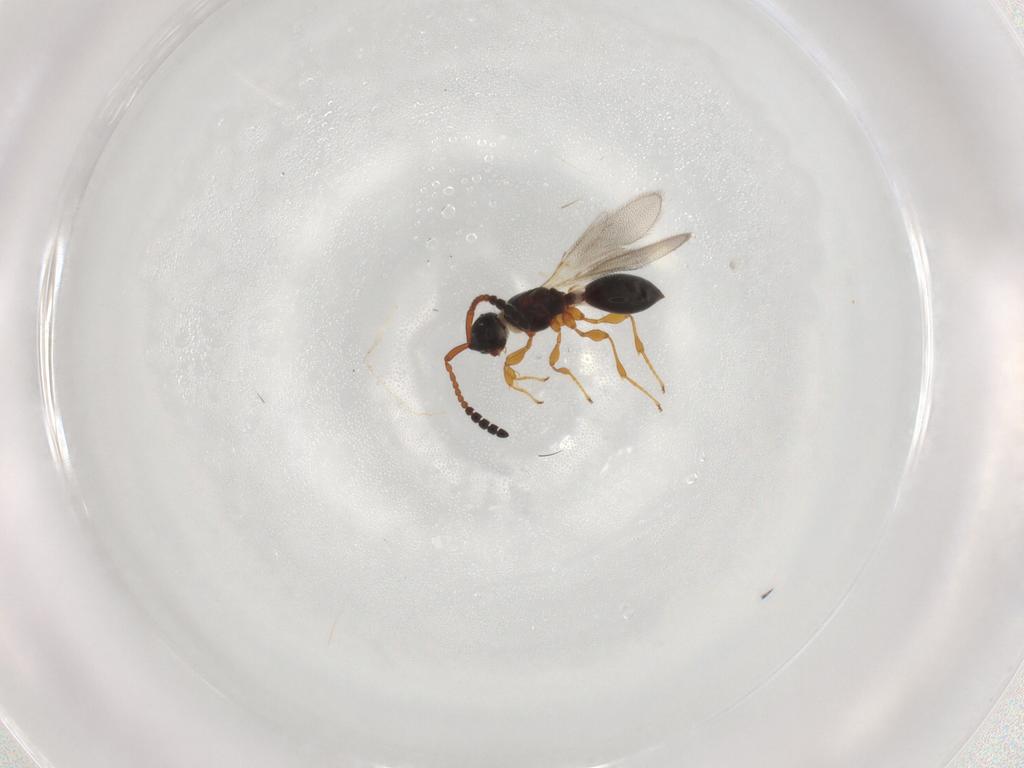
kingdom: Animalia
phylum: Arthropoda
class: Insecta
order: Hymenoptera
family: Diapriidae
